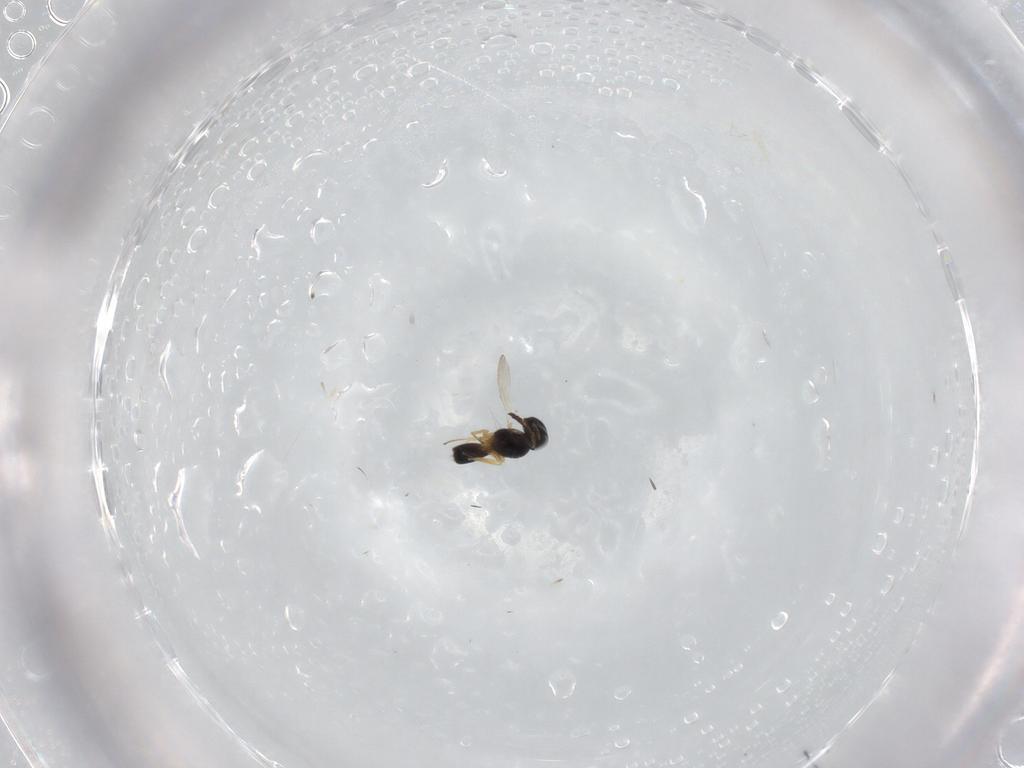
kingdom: Animalia
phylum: Arthropoda
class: Insecta
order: Hymenoptera
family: Scelionidae
